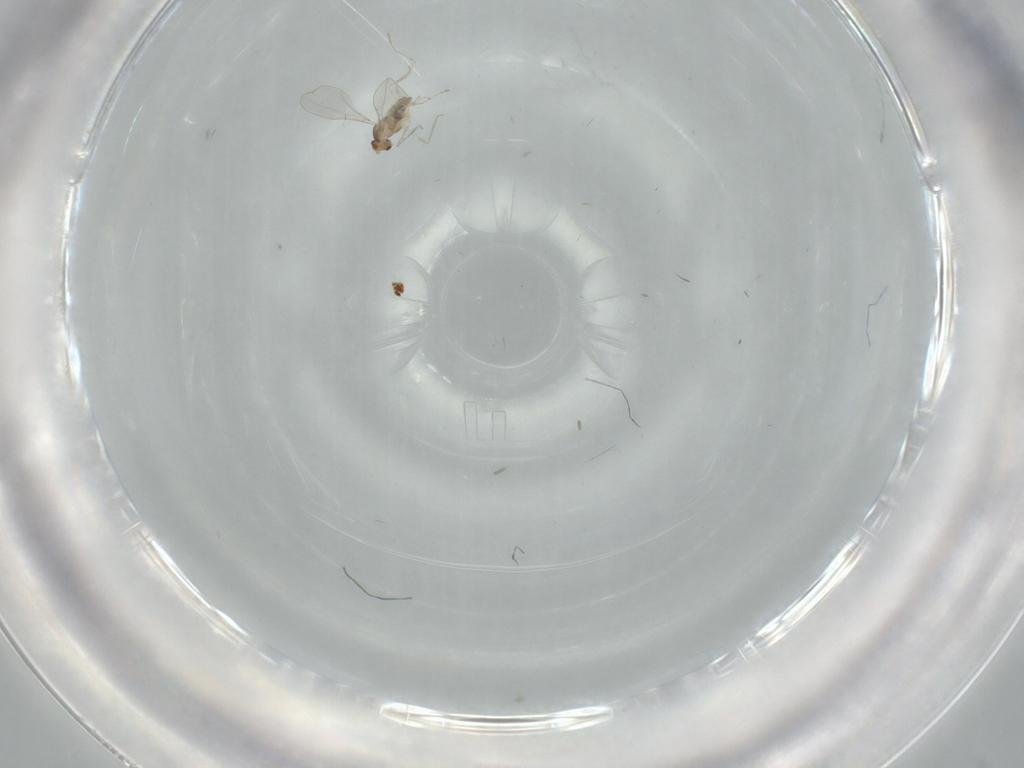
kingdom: Animalia
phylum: Arthropoda
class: Insecta
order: Diptera
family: Cecidomyiidae
